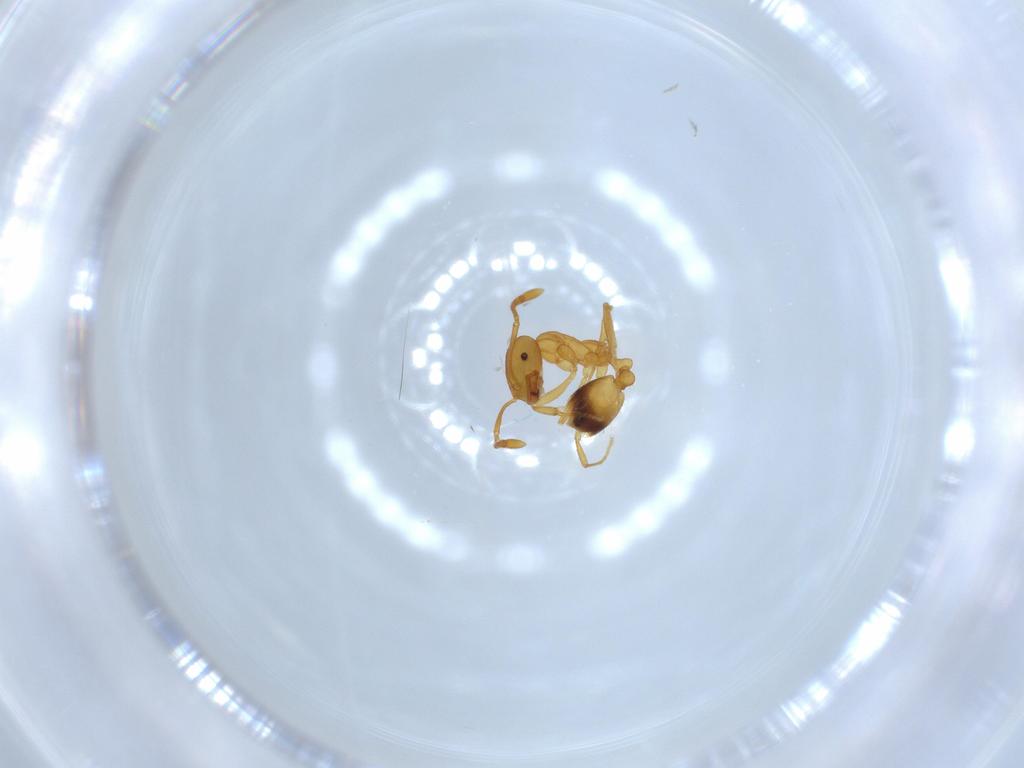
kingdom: Animalia
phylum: Arthropoda
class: Insecta
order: Hymenoptera
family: Formicidae
